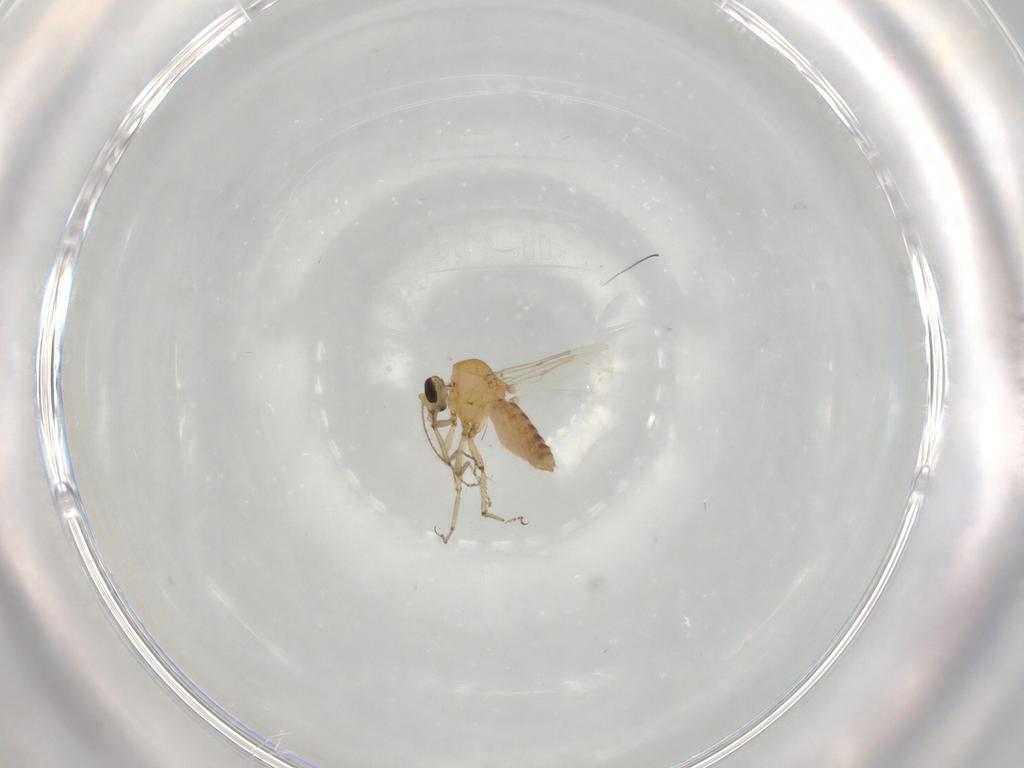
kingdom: Animalia
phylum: Arthropoda
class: Insecta
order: Diptera
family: Ceratopogonidae
